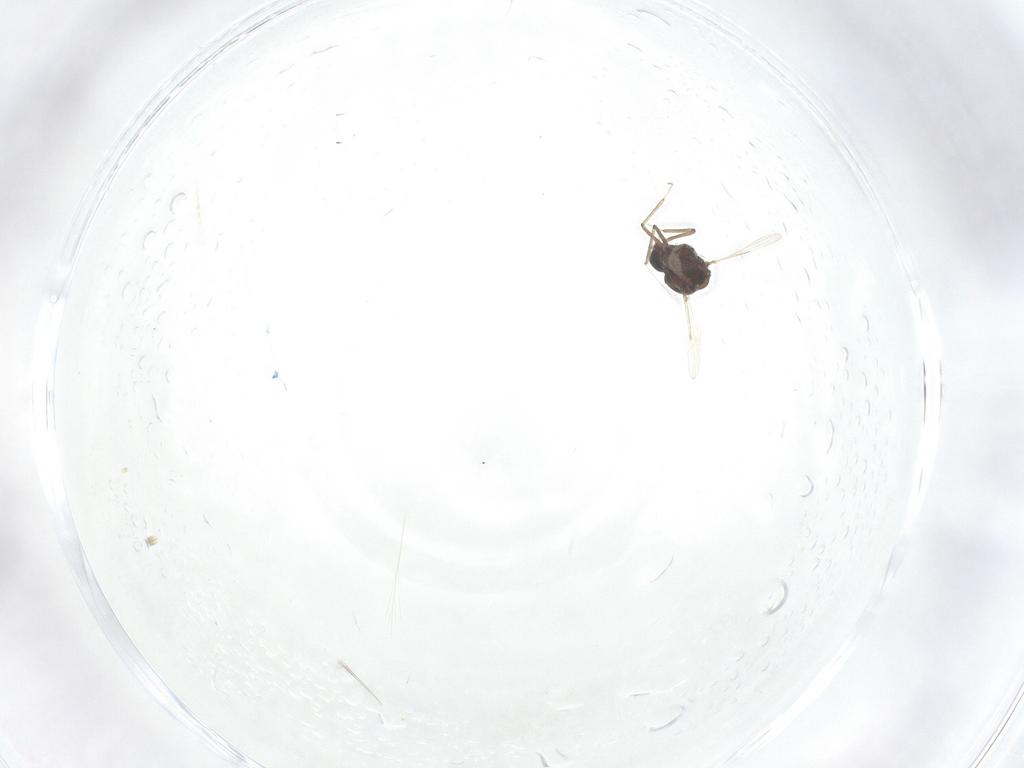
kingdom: Animalia
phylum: Arthropoda
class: Insecta
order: Diptera
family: Ceratopogonidae
